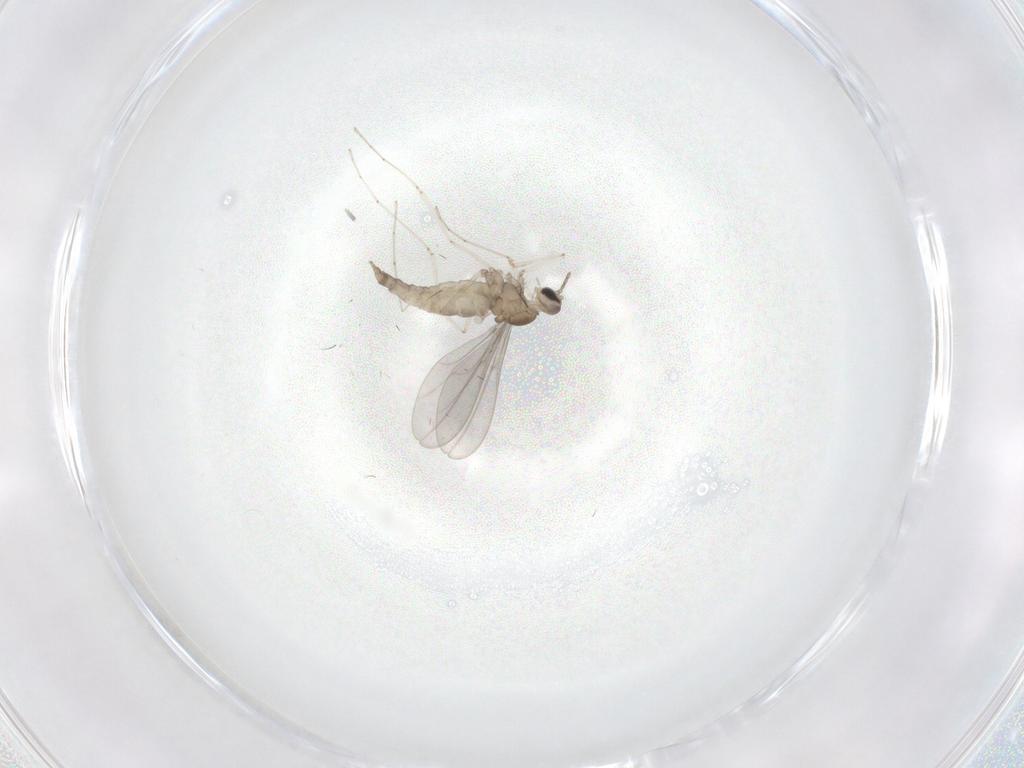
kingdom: Animalia
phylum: Arthropoda
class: Insecta
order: Diptera
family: Cecidomyiidae
